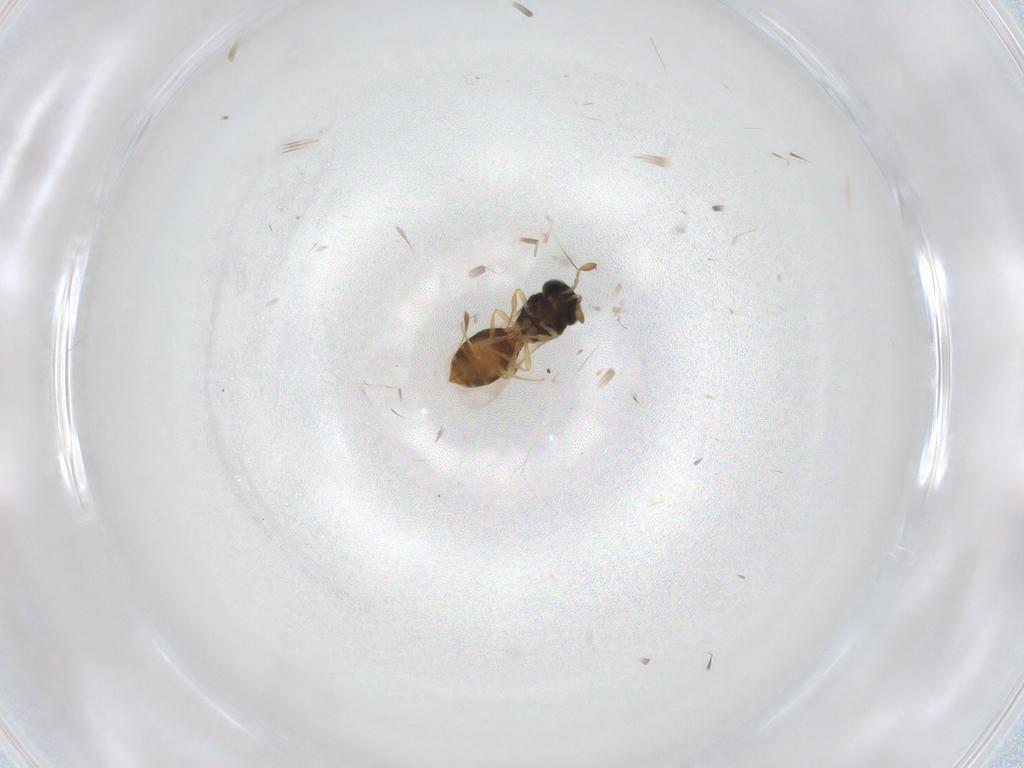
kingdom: Animalia
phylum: Arthropoda
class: Insecta
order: Hymenoptera
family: Scelionidae
